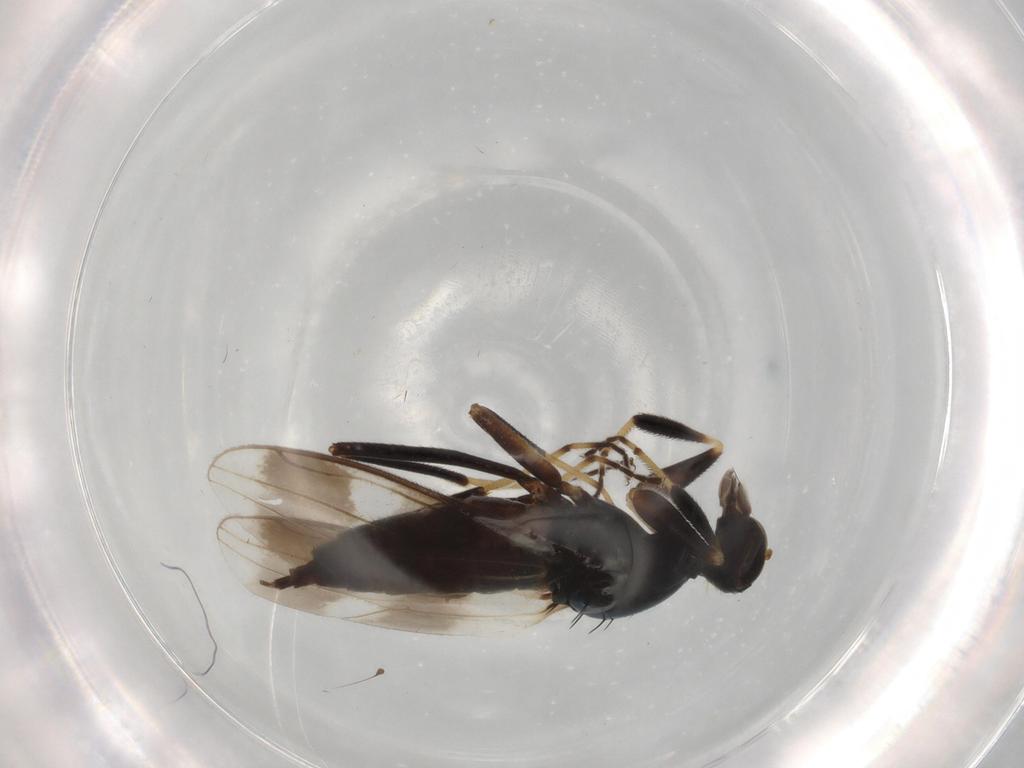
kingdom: Animalia
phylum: Arthropoda
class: Insecta
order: Diptera
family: Hybotidae
